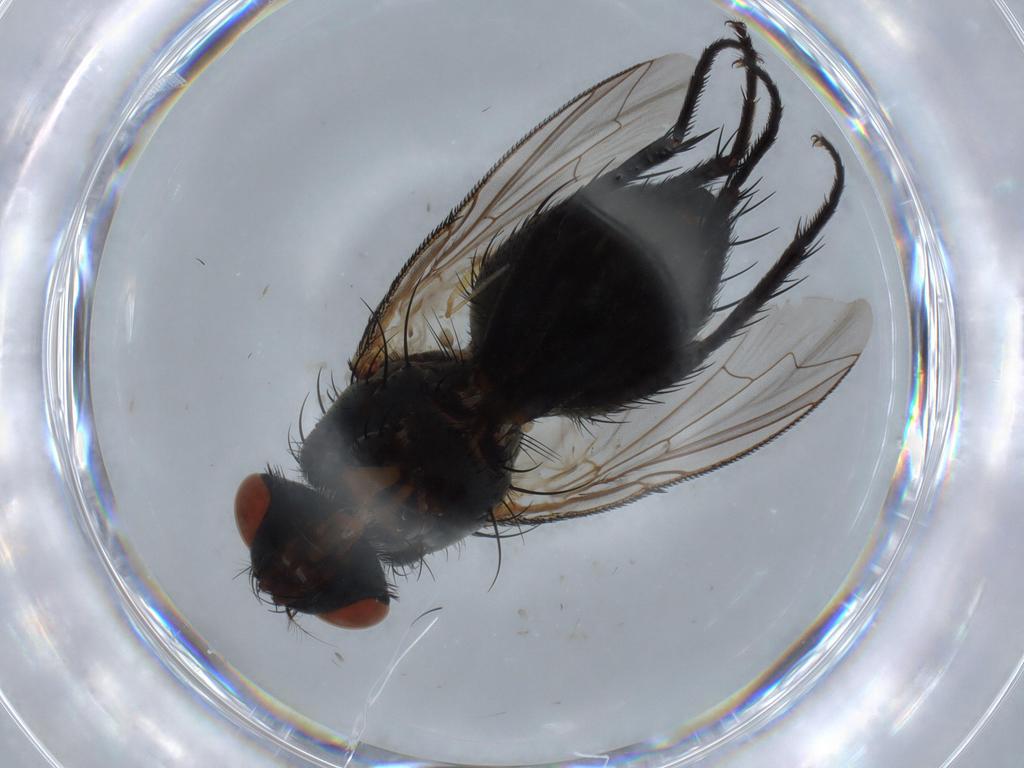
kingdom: Animalia
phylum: Arthropoda
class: Insecta
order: Diptera
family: Sarcophagidae
